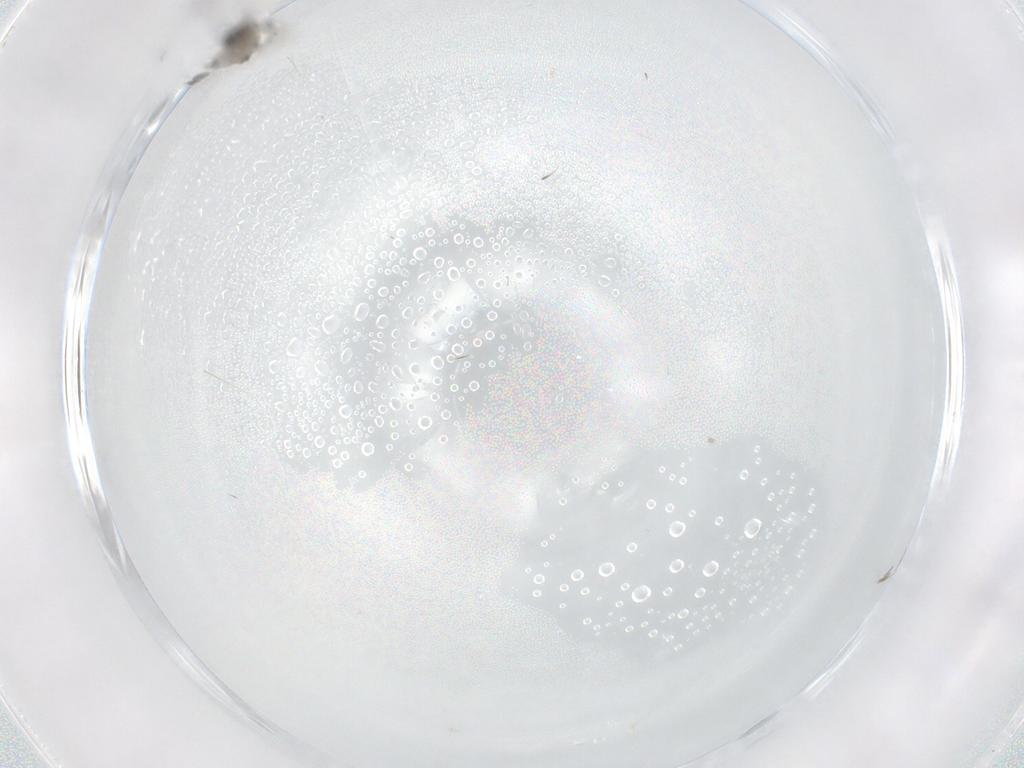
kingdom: Animalia
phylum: Arthropoda
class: Insecta
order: Diptera
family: Cecidomyiidae
